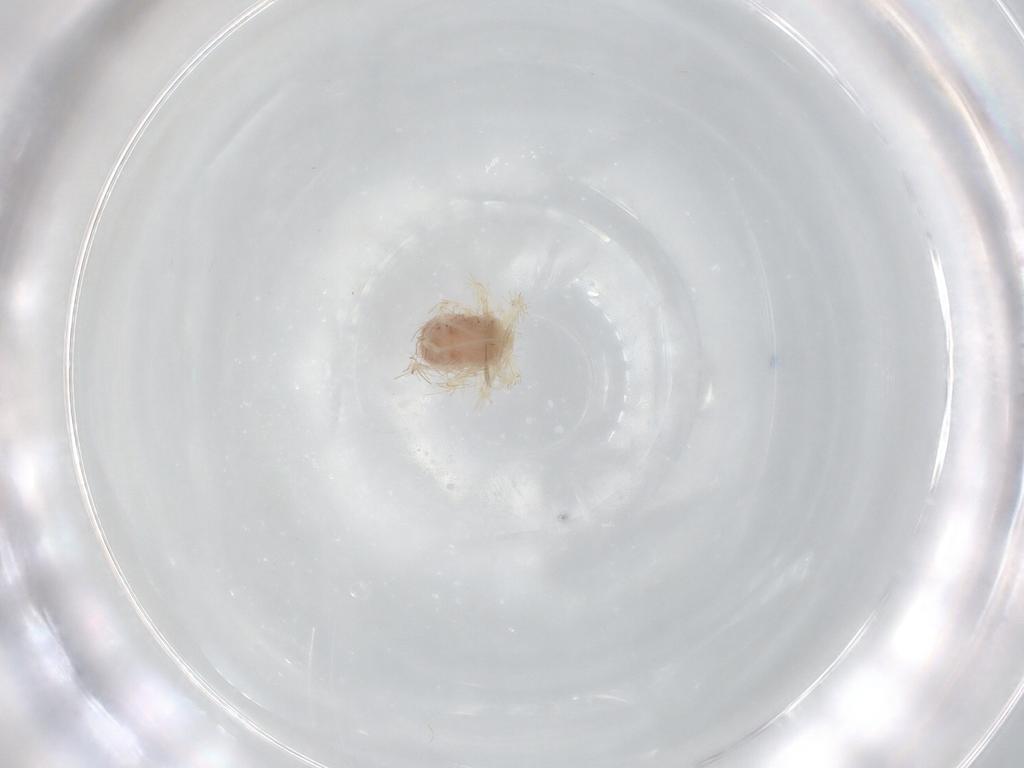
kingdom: Animalia
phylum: Arthropoda
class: Arachnida
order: Trombidiformes
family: Anystidae
